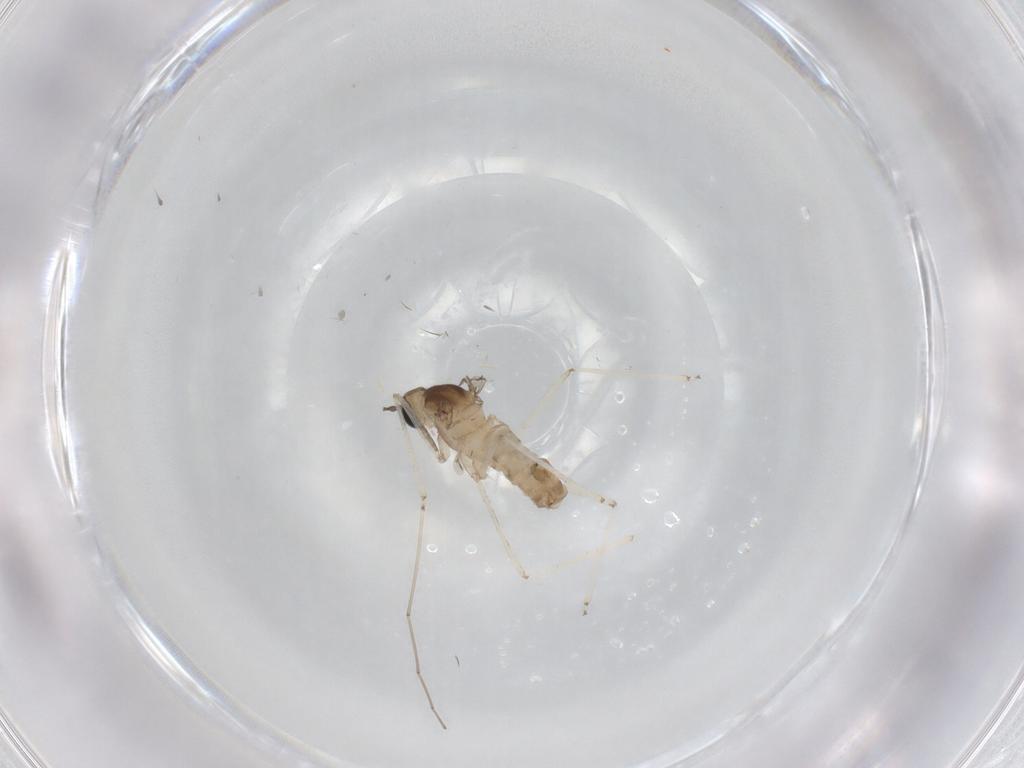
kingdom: Animalia
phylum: Arthropoda
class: Insecta
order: Diptera
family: Cecidomyiidae
